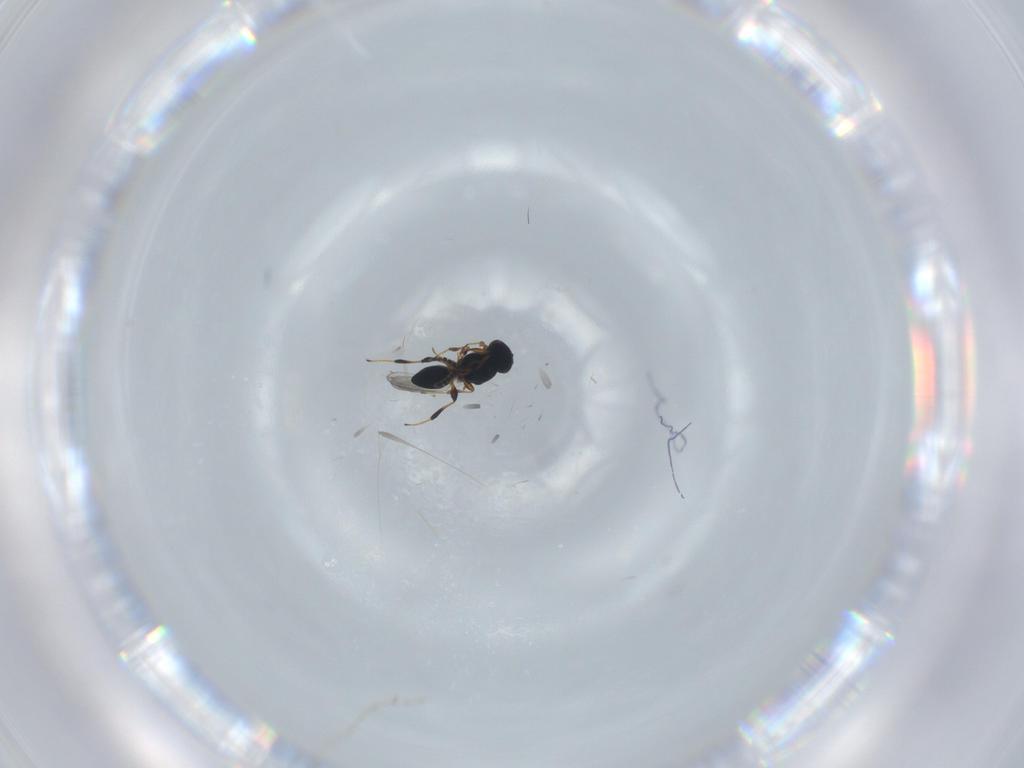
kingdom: Animalia
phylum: Arthropoda
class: Insecta
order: Hymenoptera
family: Platygastridae
